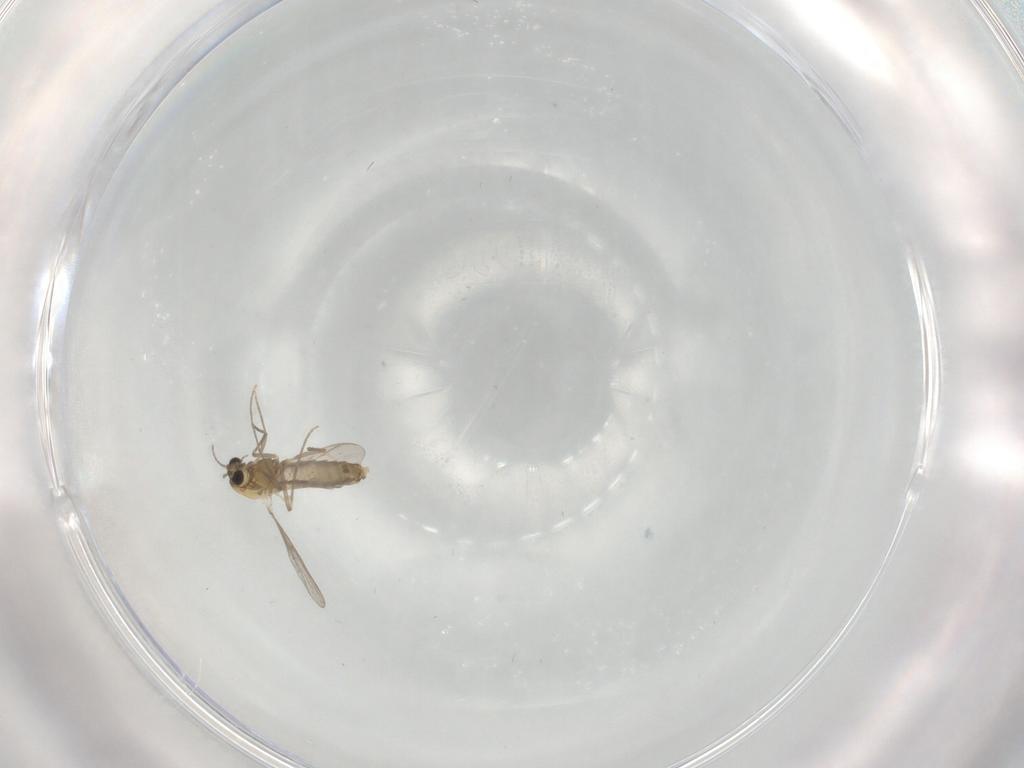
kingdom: Animalia
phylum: Arthropoda
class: Insecta
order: Diptera
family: Chironomidae
